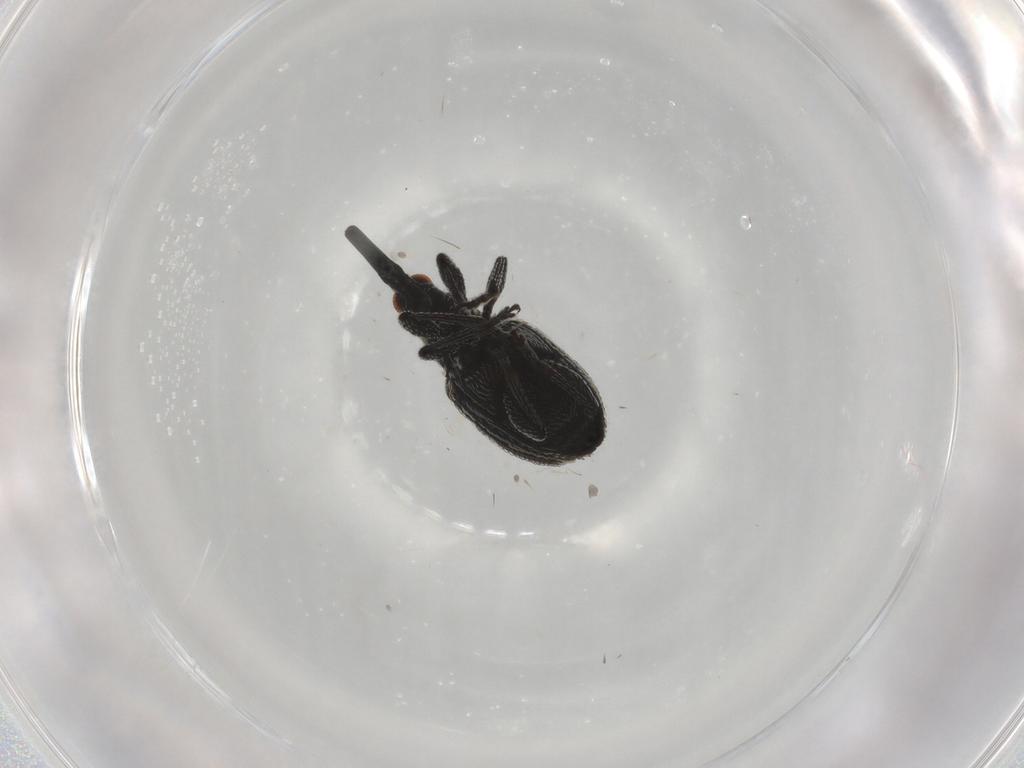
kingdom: Animalia
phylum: Arthropoda
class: Insecta
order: Coleoptera
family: Brentidae
